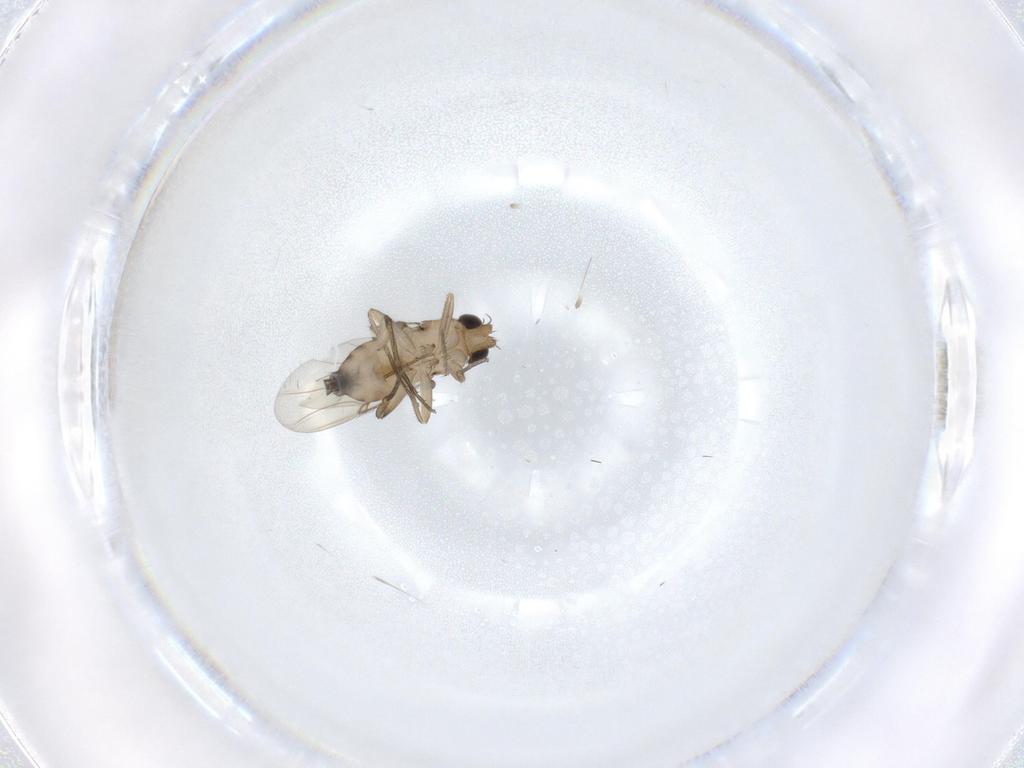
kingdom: Animalia
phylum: Arthropoda
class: Insecta
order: Diptera
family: Phoridae
